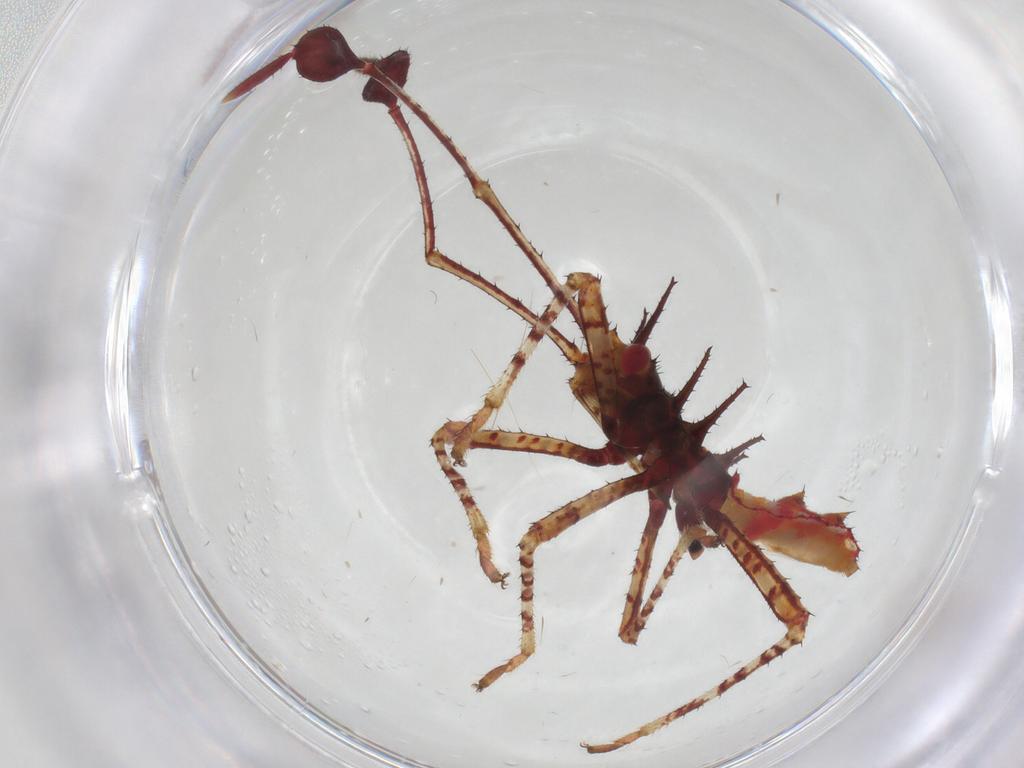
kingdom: Animalia
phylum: Arthropoda
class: Insecta
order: Hemiptera
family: Coreidae
